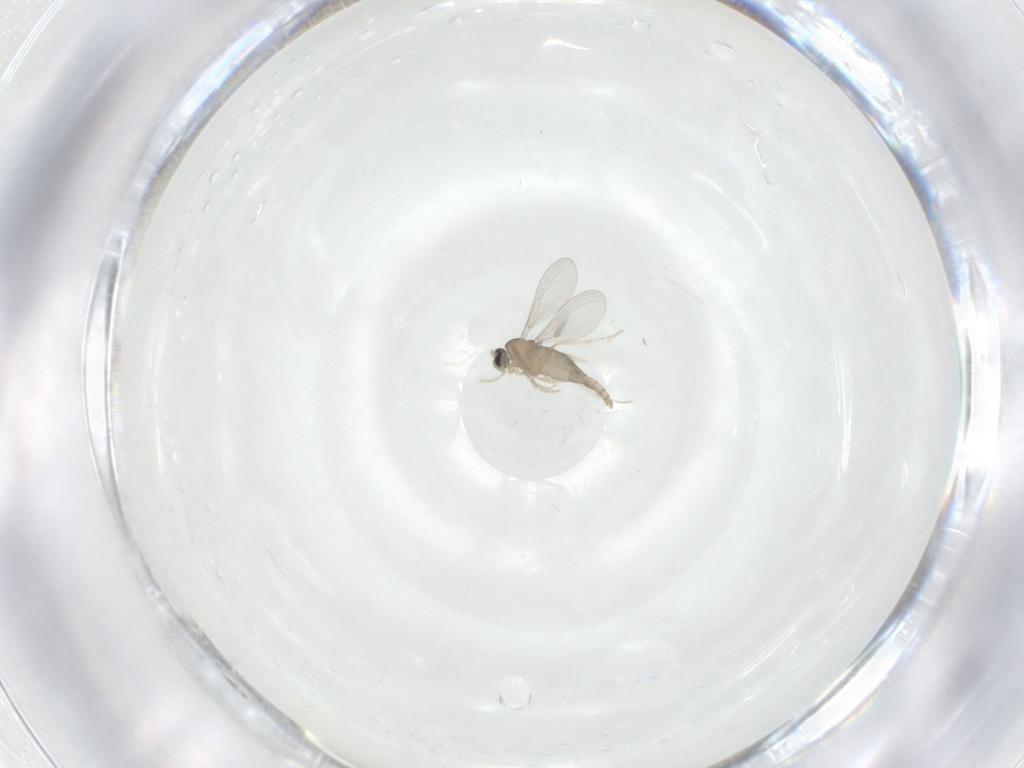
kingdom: Animalia
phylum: Arthropoda
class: Insecta
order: Diptera
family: Cecidomyiidae
